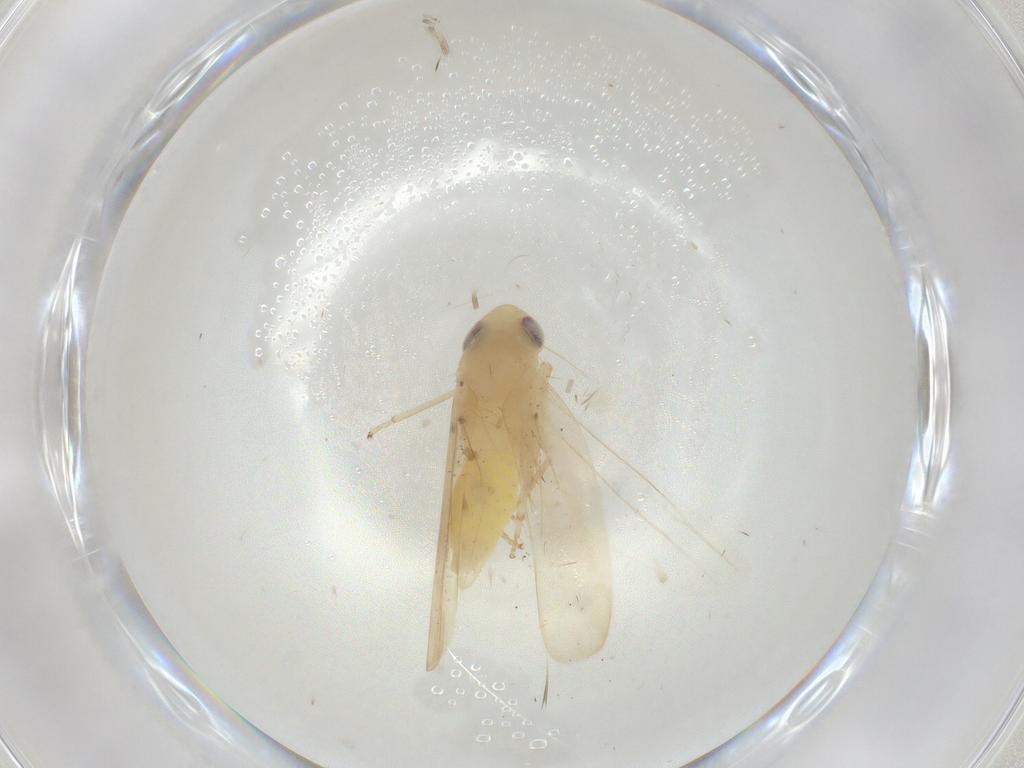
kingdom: Animalia
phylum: Arthropoda
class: Insecta
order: Hemiptera
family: Cicadellidae
